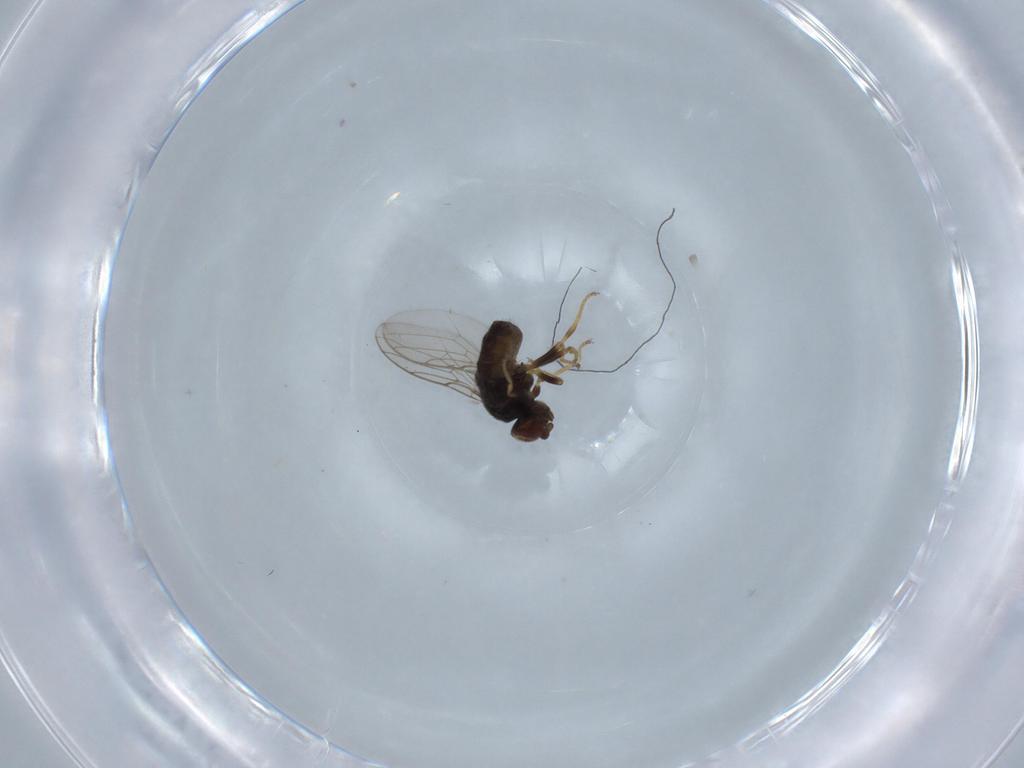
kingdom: Animalia
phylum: Arthropoda
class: Insecta
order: Diptera
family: Chloropidae
